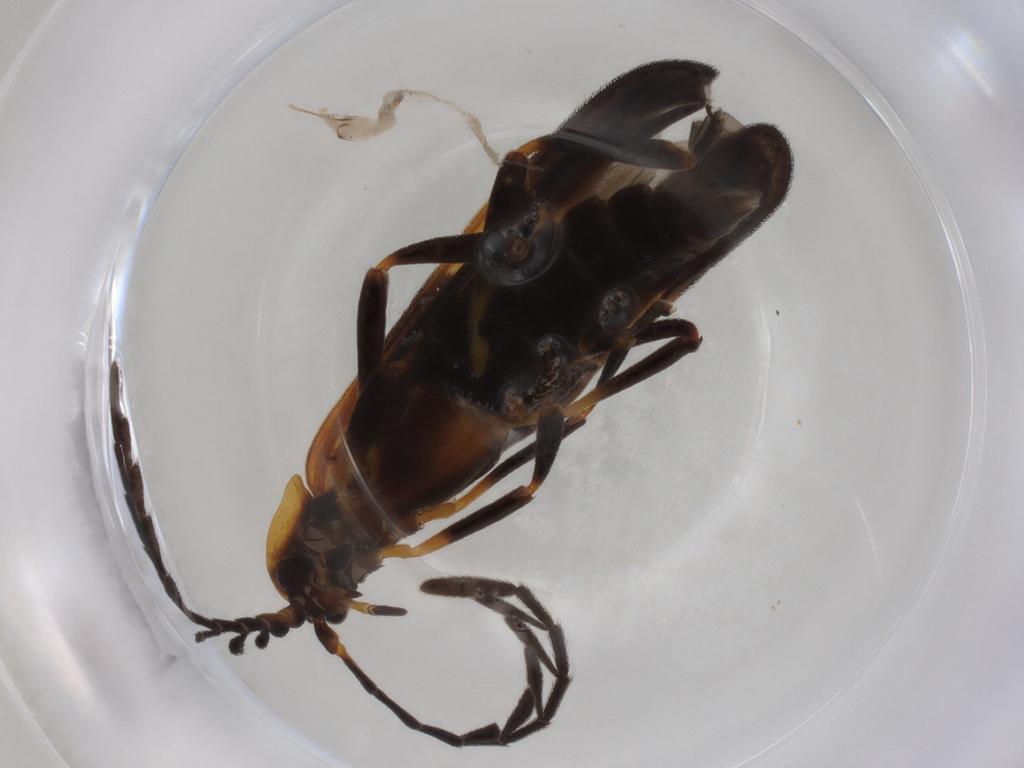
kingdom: Animalia
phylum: Arthropoda
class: Insecta
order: Coleoptera
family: Lycidae
